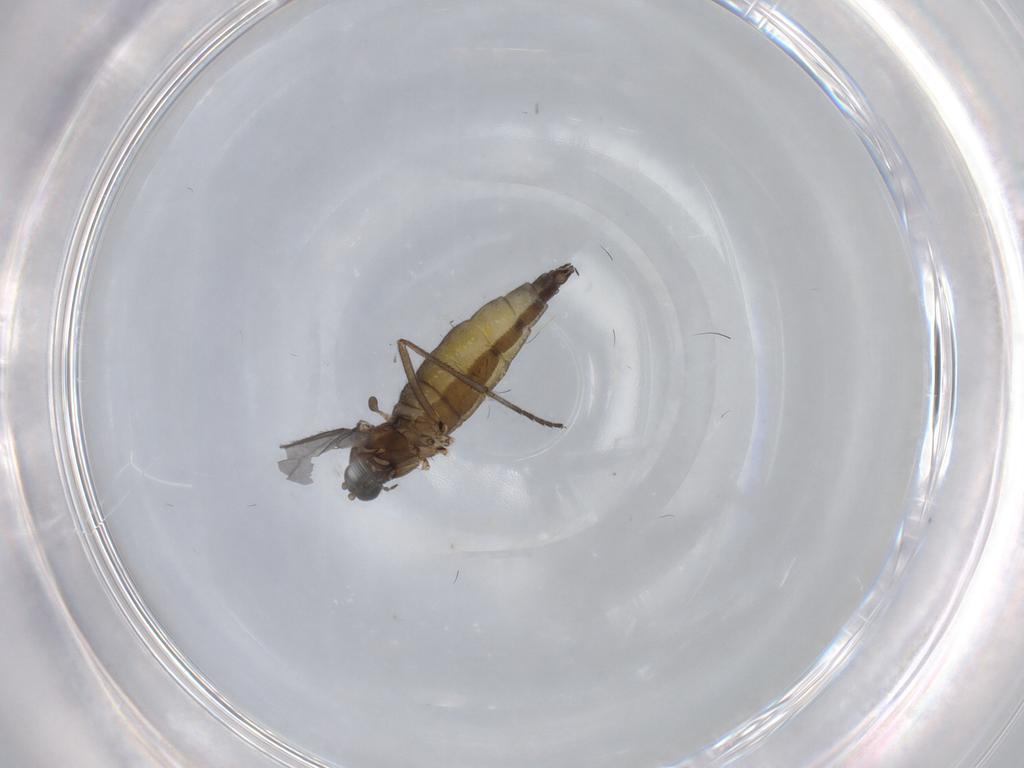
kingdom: Animalia
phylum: Arthropoda
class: Insecta
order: Diptera
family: Sciaridae
